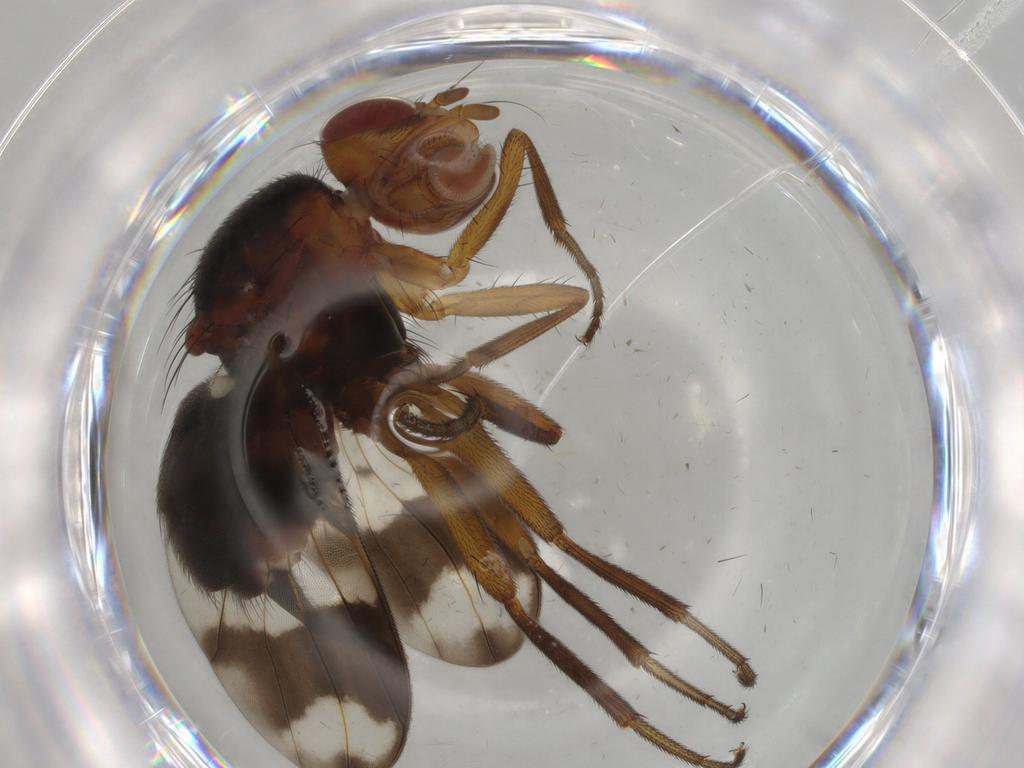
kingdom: Animalia
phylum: Arthropoda
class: Insecta
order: Diptera
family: Richardiidae
